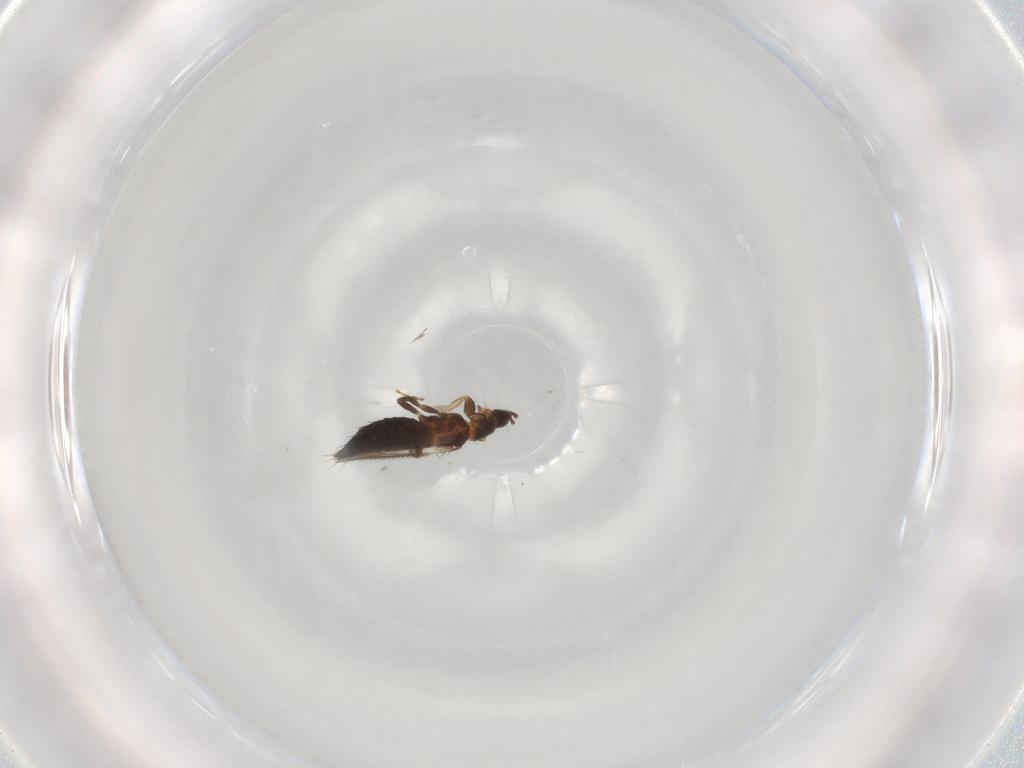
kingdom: Animalia
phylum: Arthropoda
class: Insecta
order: Thysanoptera
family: Thripidae
